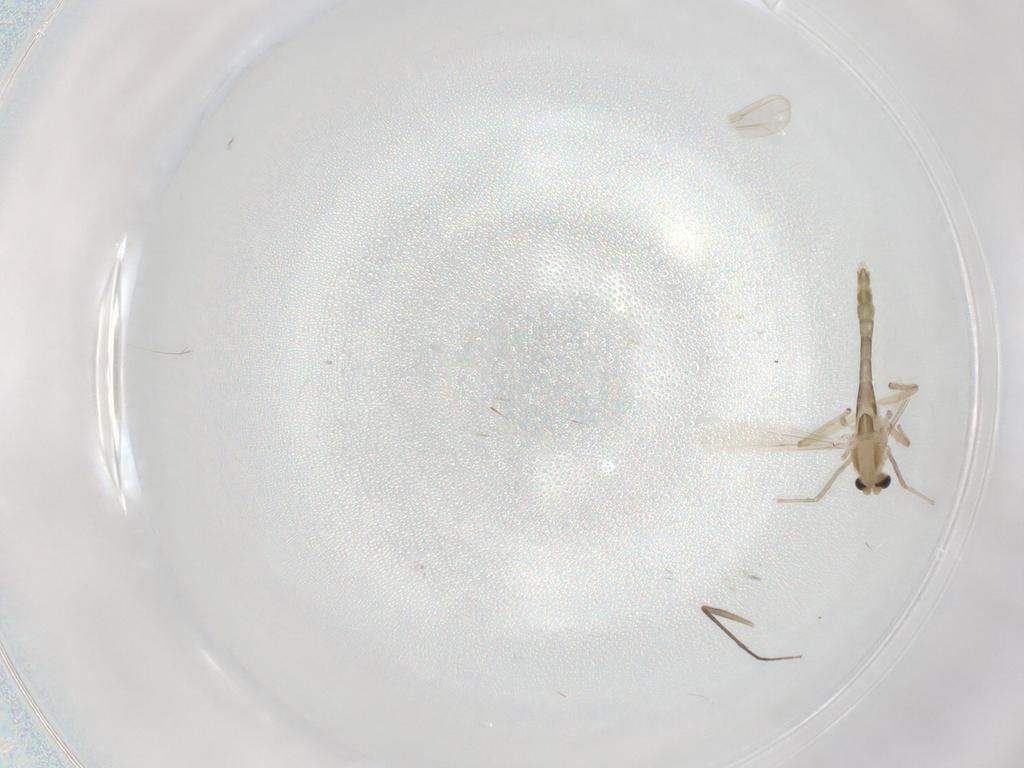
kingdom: Animalia
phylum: Arthropoda
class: Insecta
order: Diptera
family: Chironomidae
